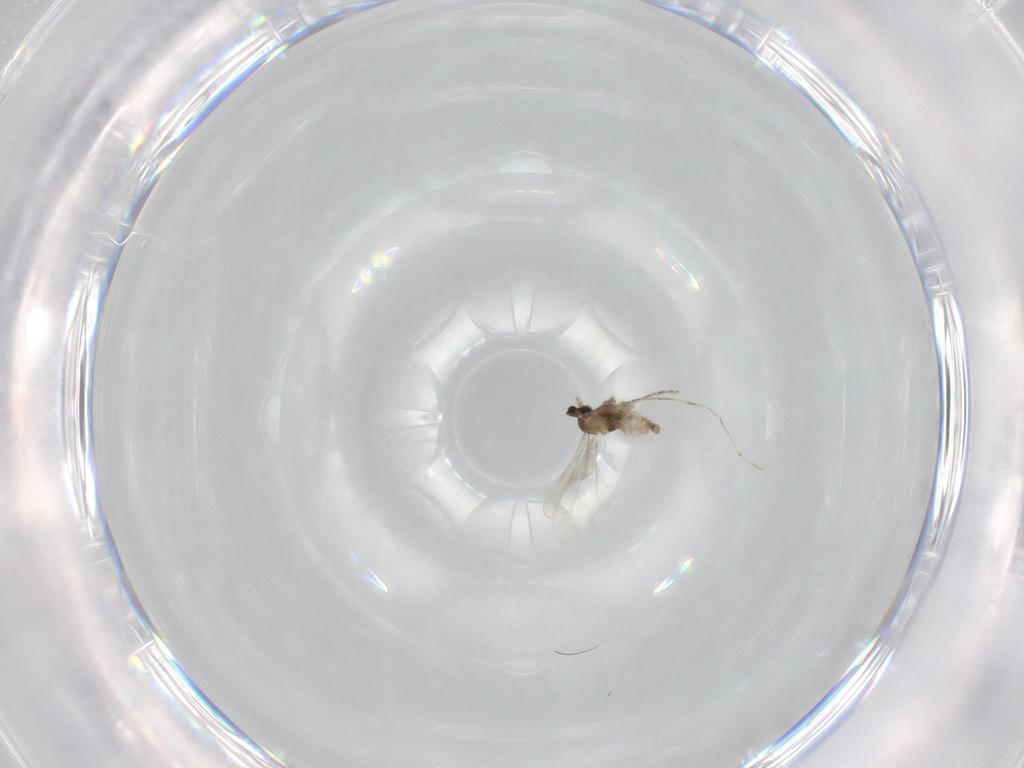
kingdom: Animalia
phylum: Arthropoda
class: Insecta
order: Diptera
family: Cecidomyiidae
